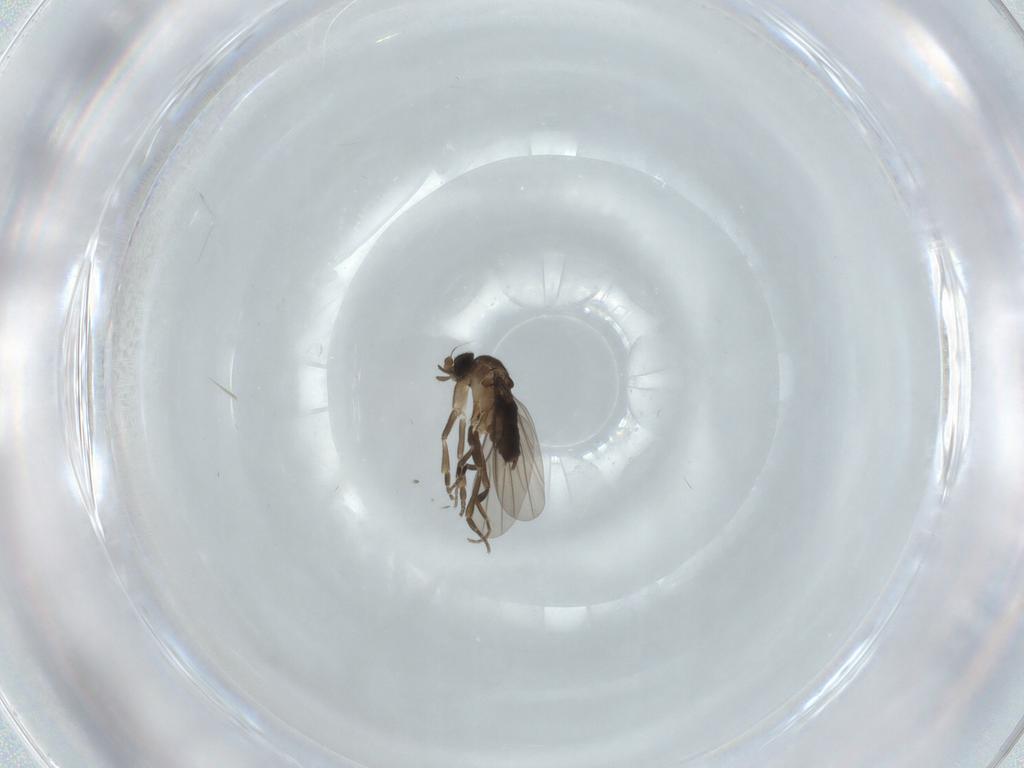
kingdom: Animalia
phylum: Arthropoda
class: Insecta
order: Diptera
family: Phoridae
